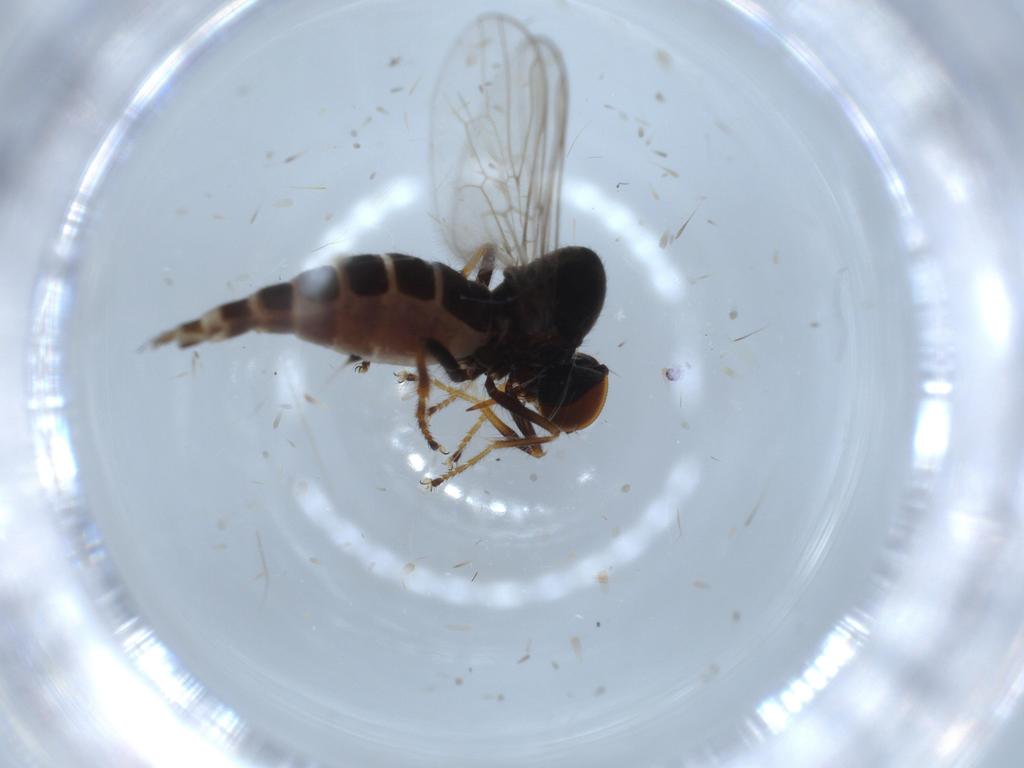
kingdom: Animalia
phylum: Arthropoda
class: Insecta
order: Diptera
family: Hybotidae
